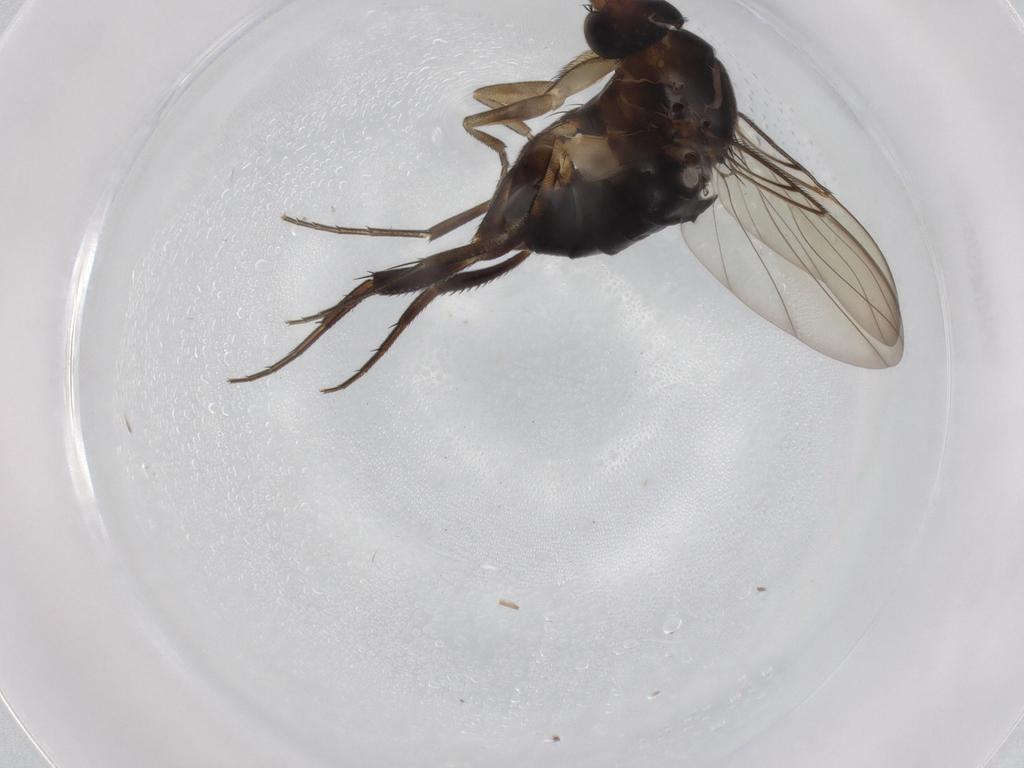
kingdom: Animalia
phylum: Arthropoda
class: Insecta
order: Diptera
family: Phoridae
